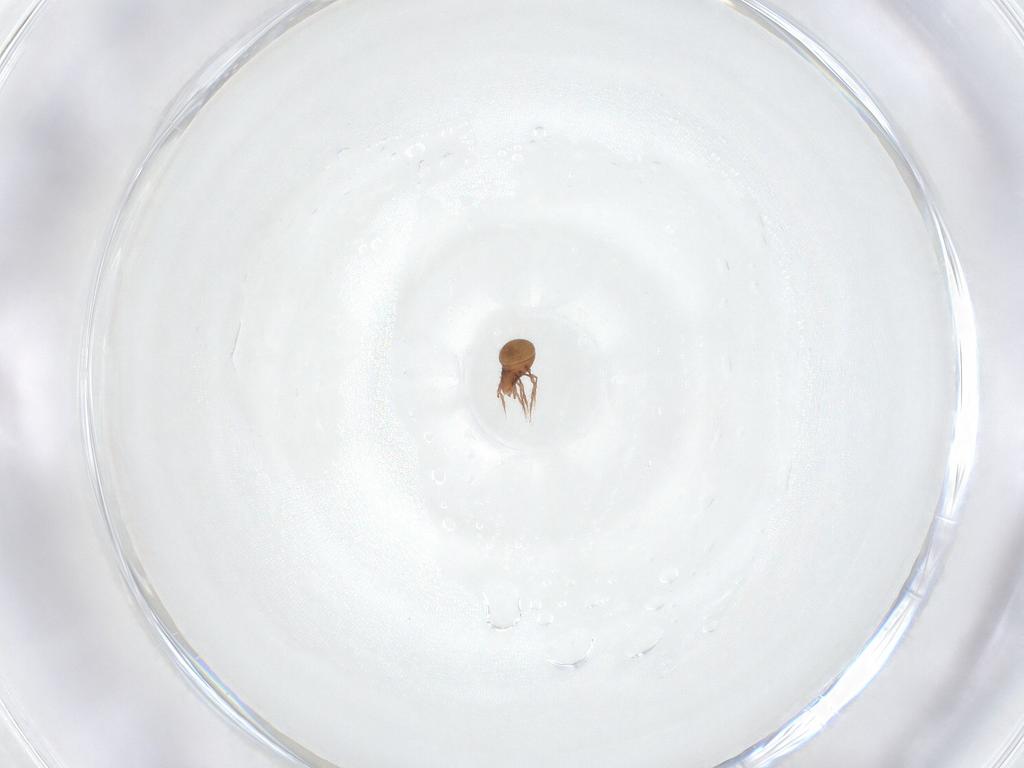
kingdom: Animalia
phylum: Arthropoda
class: Arachnida
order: Sarcoptiformes
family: Oppiidae
